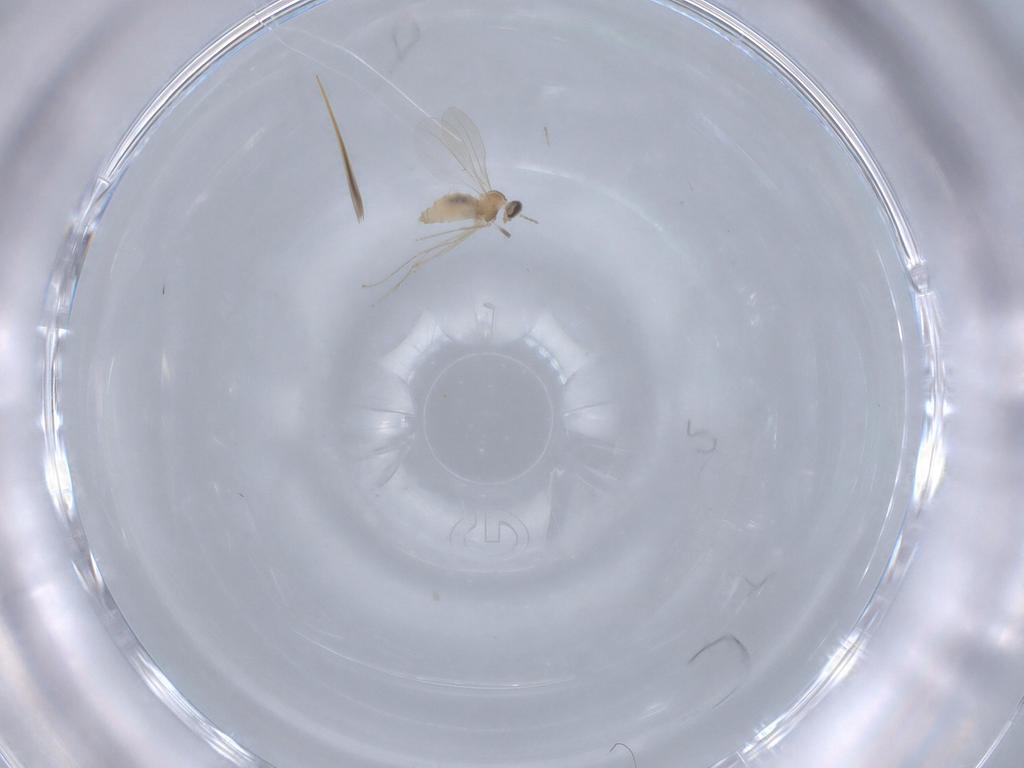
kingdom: Animalia
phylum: Arthropoda
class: Insecta
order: Diptera
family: Cecidomyiidae
